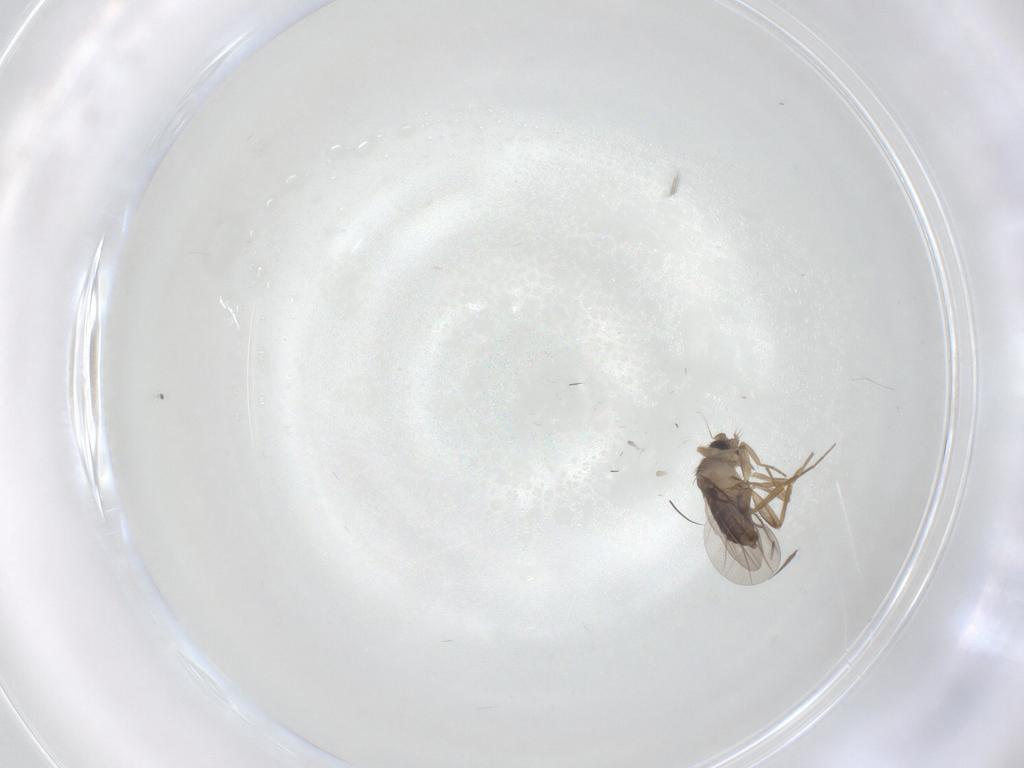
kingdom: Animalia
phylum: Arthropoda
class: Insecta
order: Diptera
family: Phoridae
